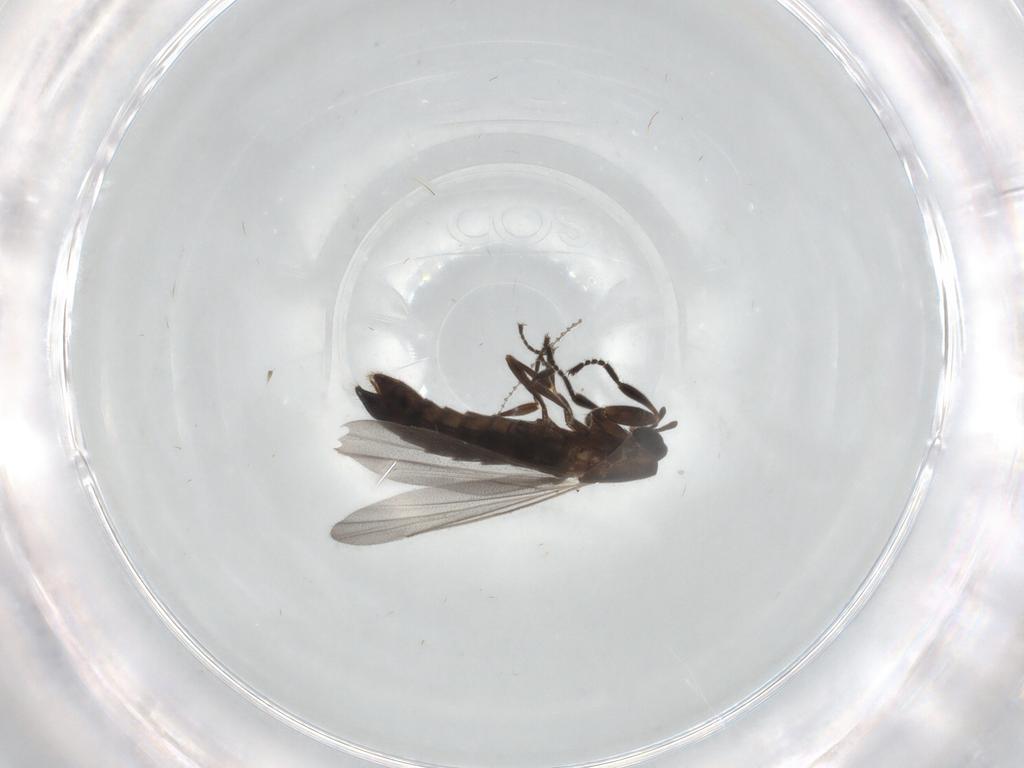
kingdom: Animalia
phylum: Arthropoda
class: Insecta
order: Diptera
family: Scatopsidae
